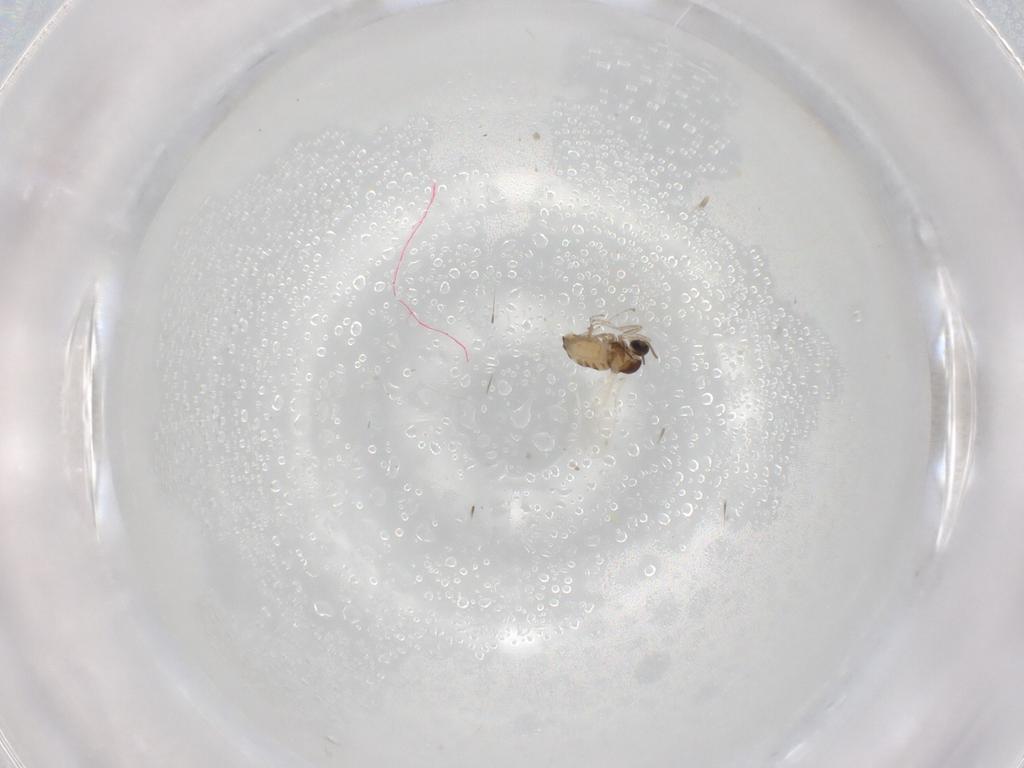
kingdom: Animalia
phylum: Arthropoda
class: Insecta
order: Diptera
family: Cecidomyiidae
